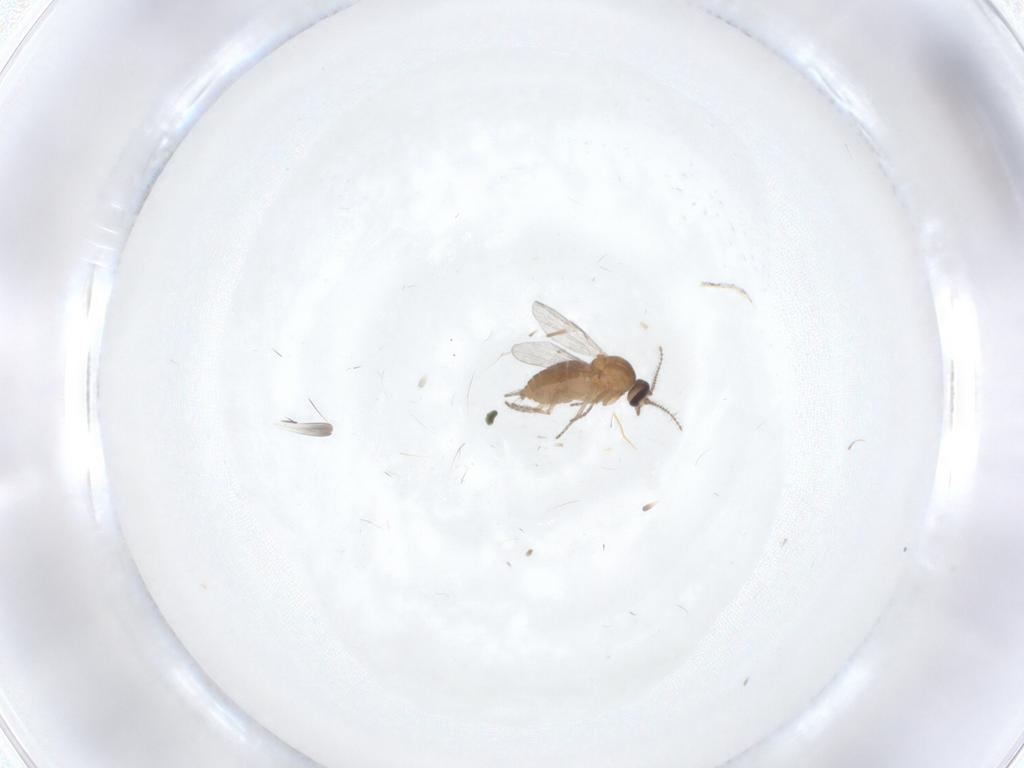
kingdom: Animalia
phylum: Arthropoda
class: Insecta
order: Diptera
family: Ceratopogonidae
